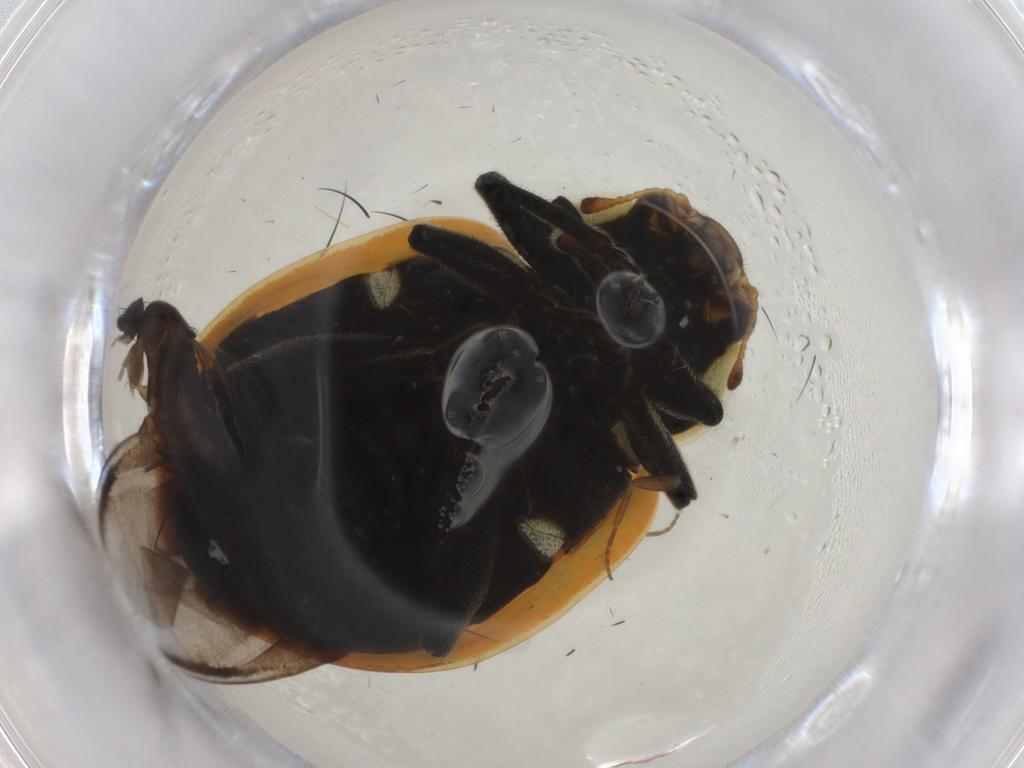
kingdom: Animalia
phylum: Arthropoda
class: Insecta
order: Coleoptera
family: Coccinellidae
